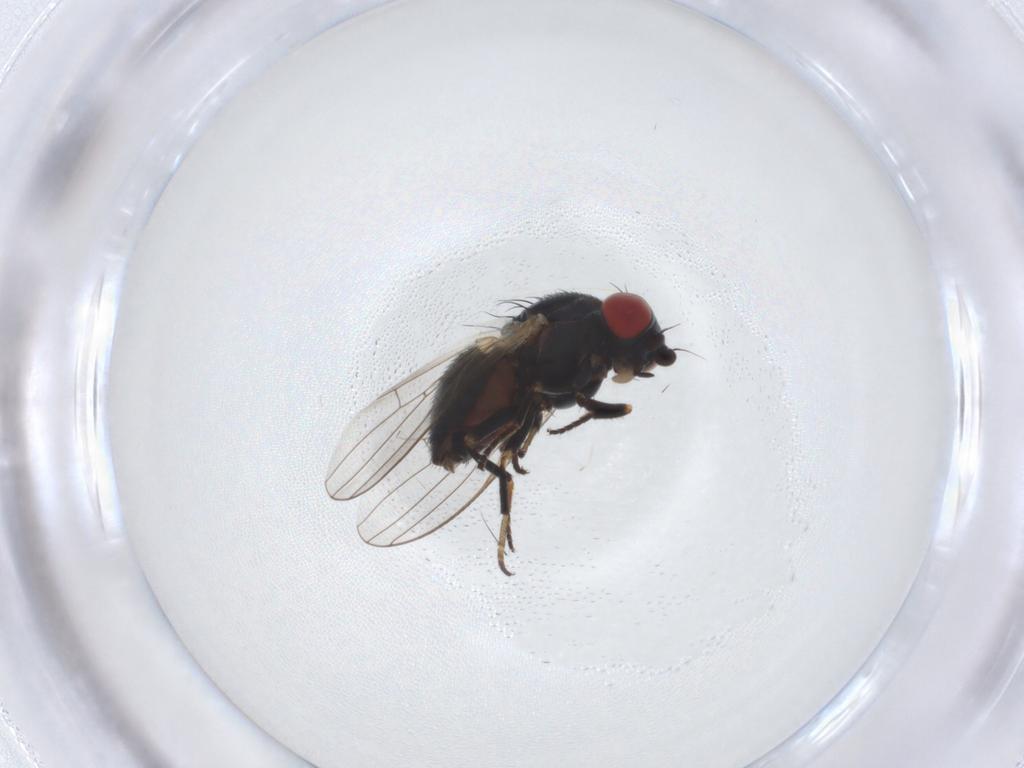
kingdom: Animalia
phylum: Arthropoda
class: Insecta
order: Diptera
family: Chamaemyiidae
